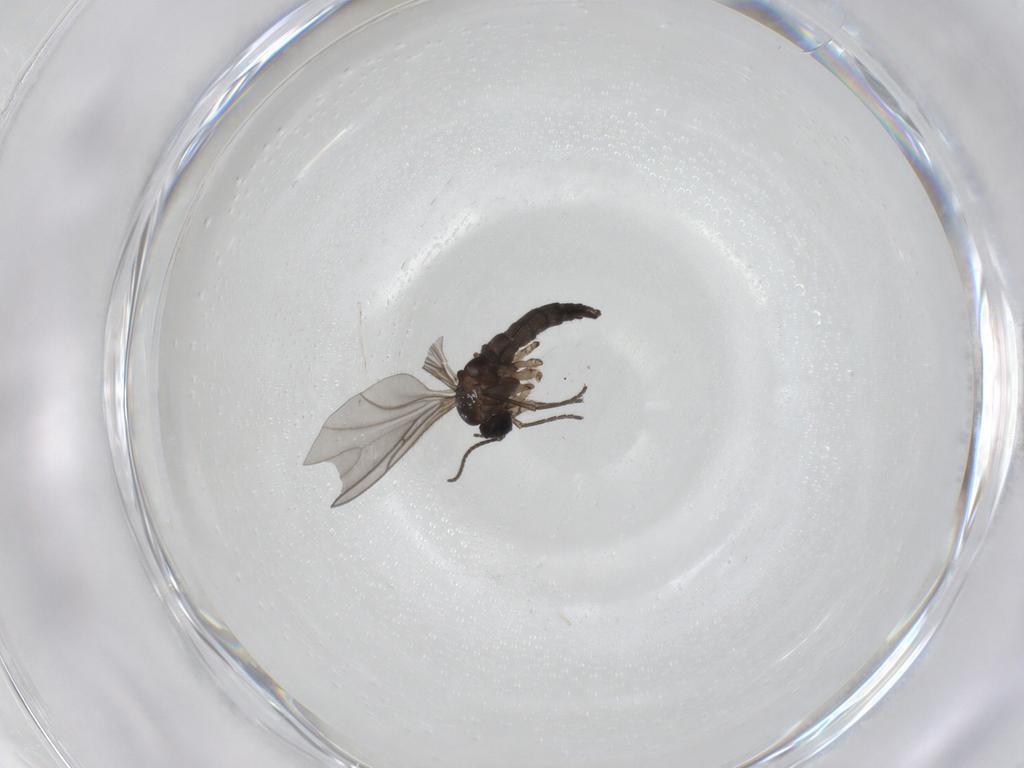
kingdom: Animalia
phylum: Arthropoda
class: Insecta
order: Diptera
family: Sciaridae
